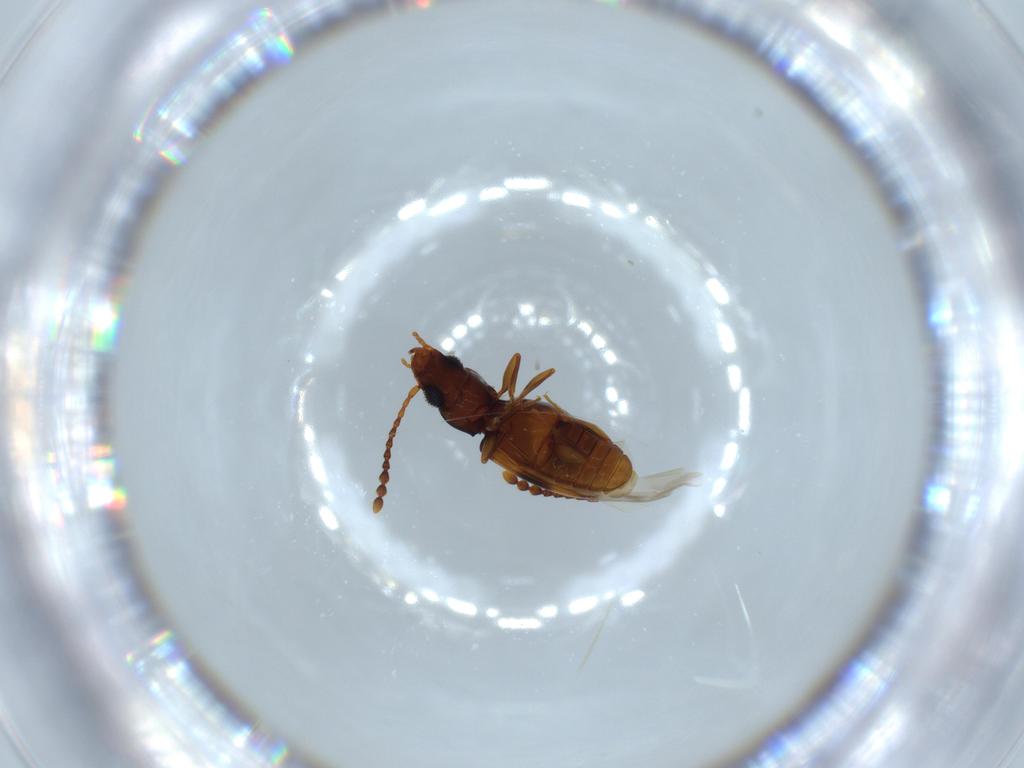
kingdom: Animalia
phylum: Arthropoda
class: Insecta
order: Coleoptera
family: Laemophloeidae
